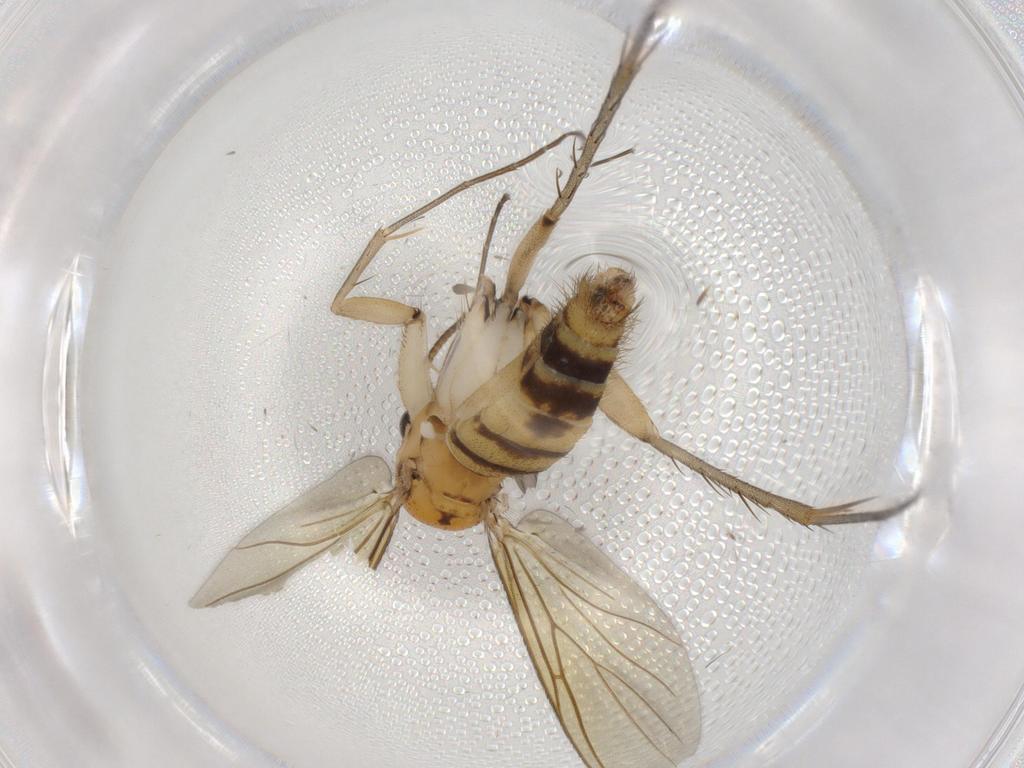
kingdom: Animalia
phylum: Arthropoda
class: Insecta
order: Diptera
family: Mycetophilidae
